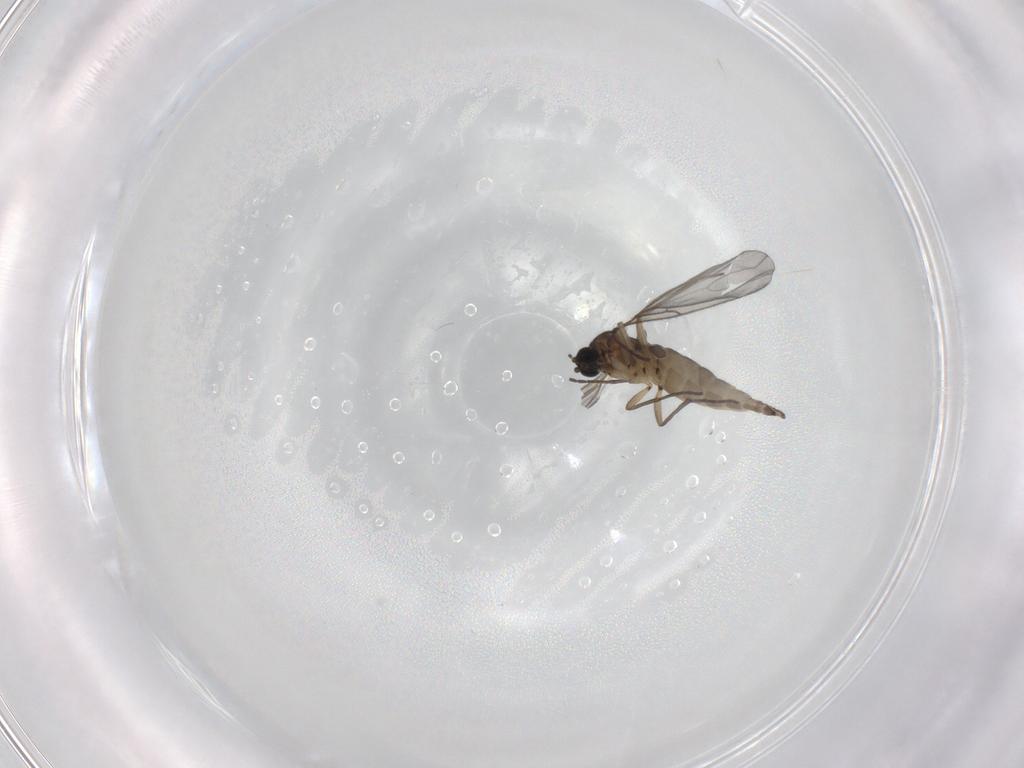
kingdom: Animalia
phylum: Arthropoda
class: Insecta
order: Diptera
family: Sciaridae
